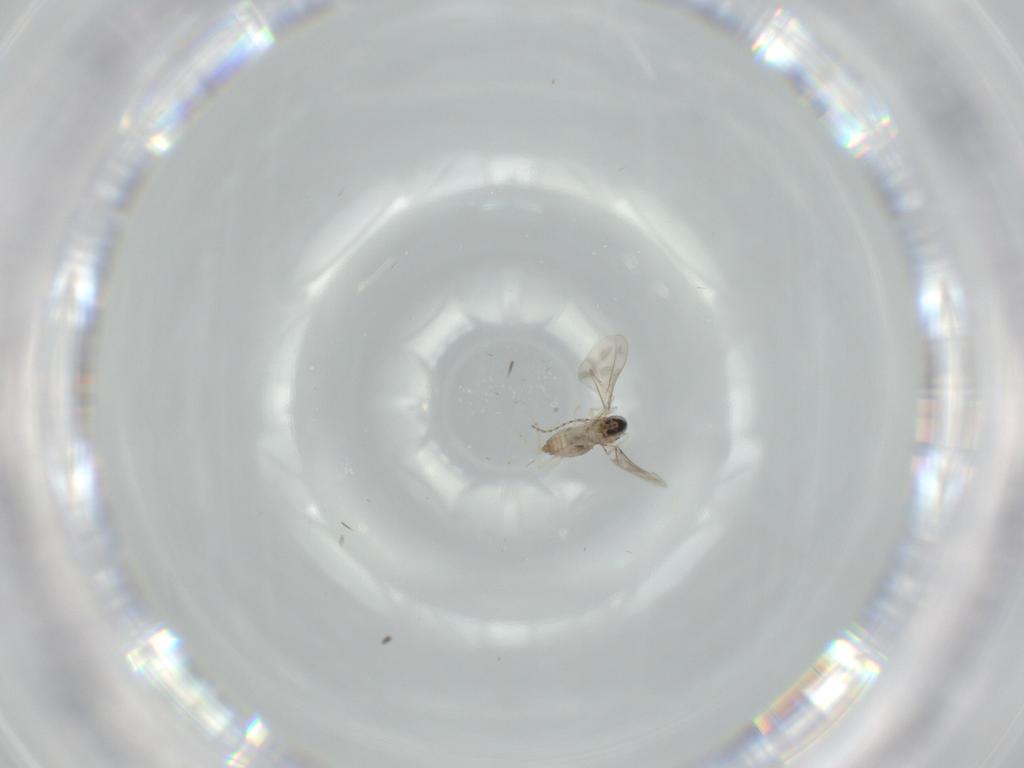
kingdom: Animalia
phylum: Arthropoda
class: Insecta
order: Diptera
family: Cecidomyiidae
